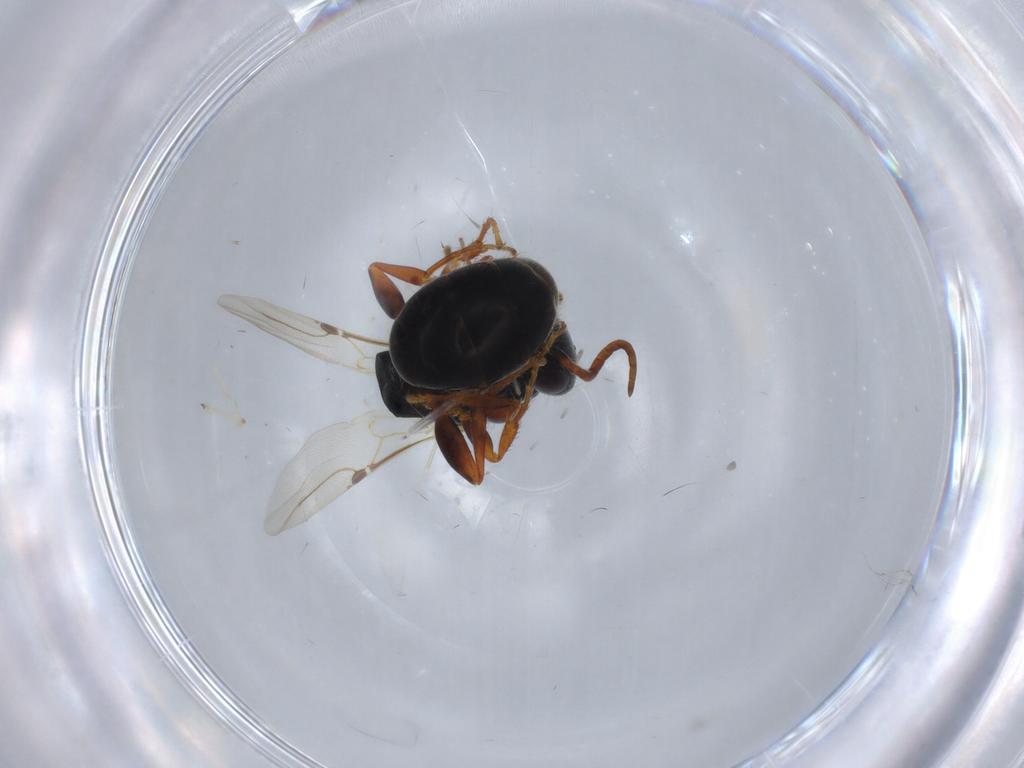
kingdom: Animalia
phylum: Arthropoda
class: Insecta
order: Hymenoptera
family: Bethylidae
